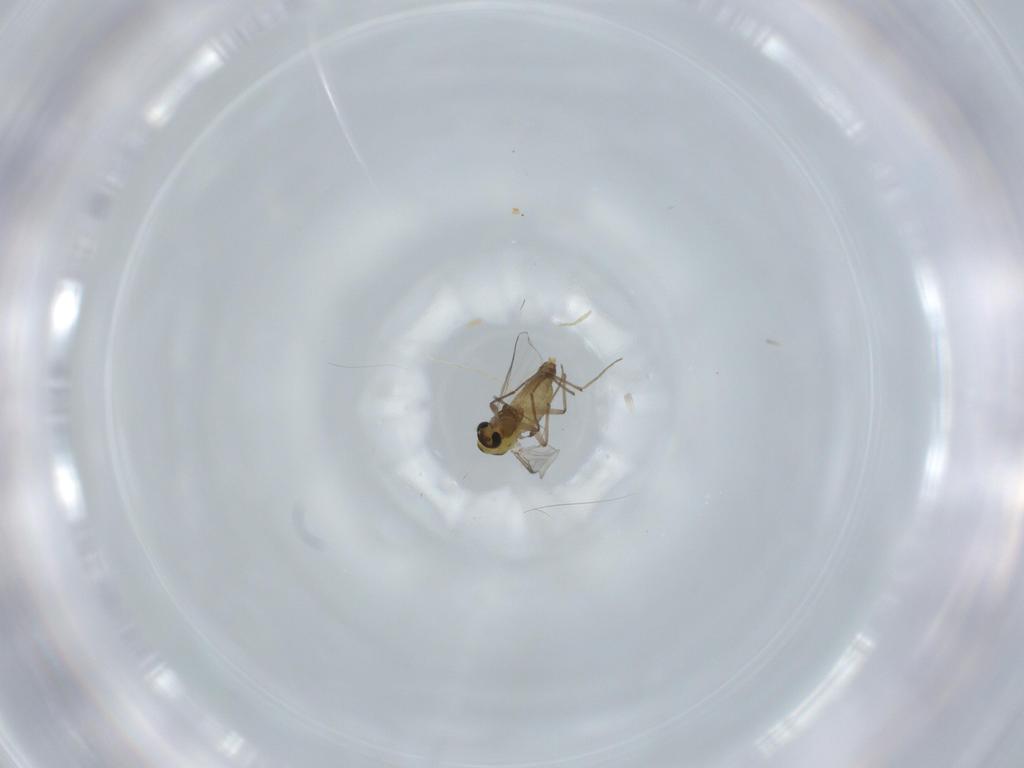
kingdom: Animalia
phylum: Arthropoda
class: Insecta
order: Diptera
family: Chironomidae
